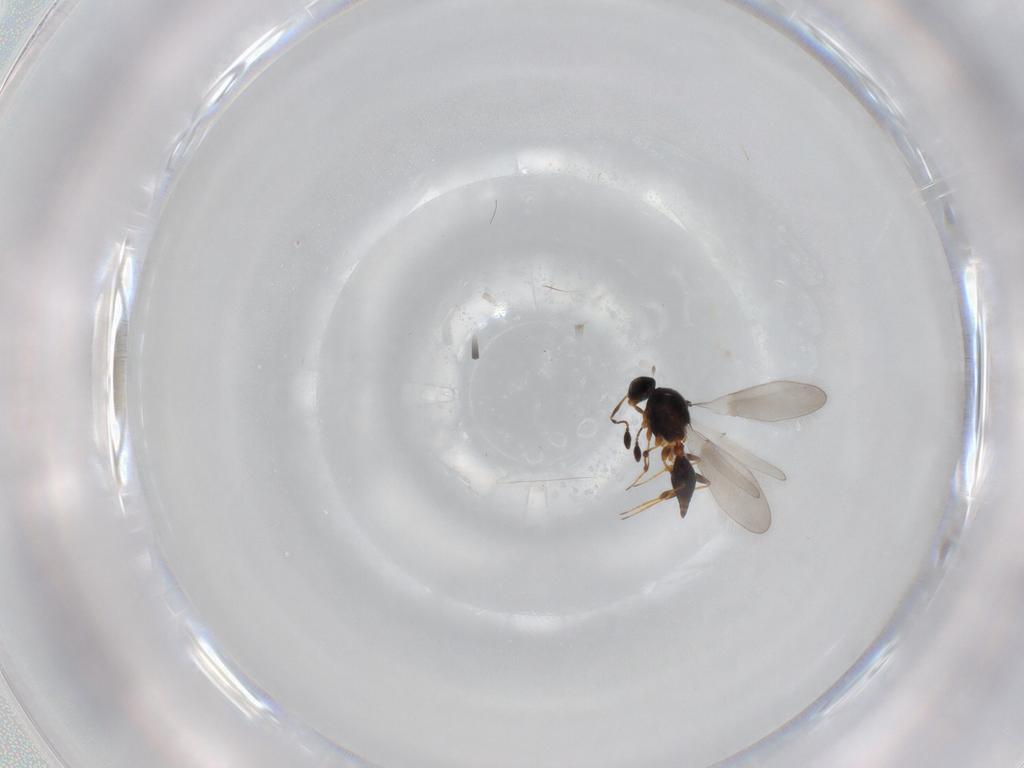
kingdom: Animalia
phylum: Arthropoda
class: Insecta
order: Hymenoptera
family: Platygastridae
